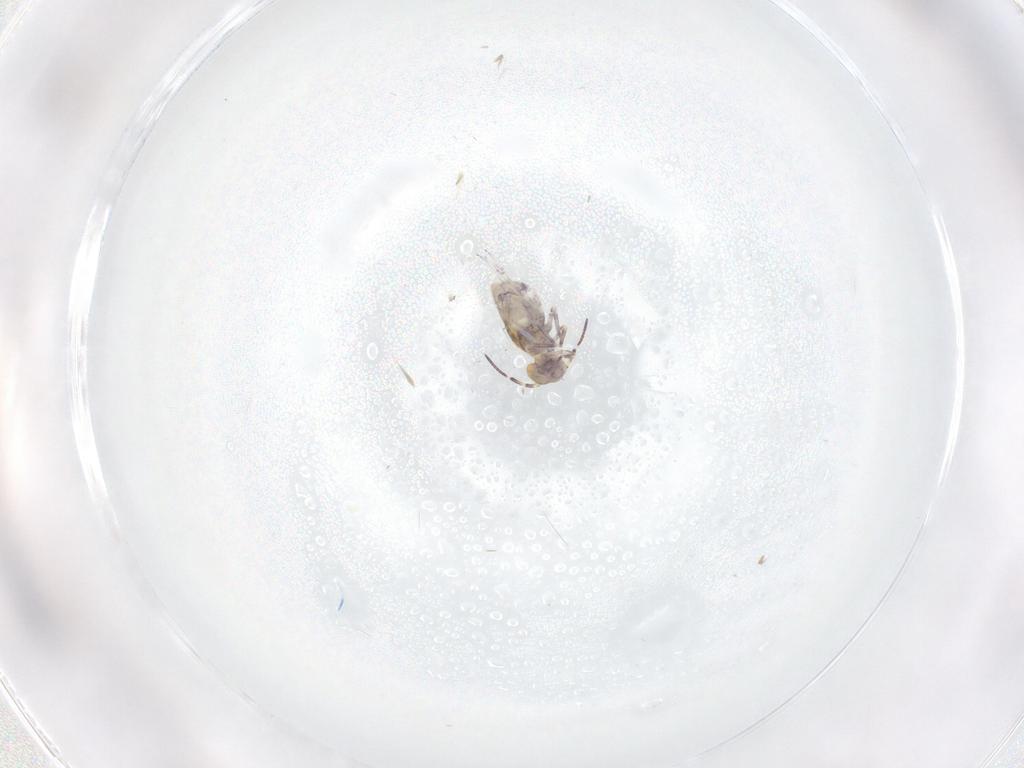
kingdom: Animalia
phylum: Arthropoda
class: Collembola
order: Symphypleona
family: Sminthuridae
